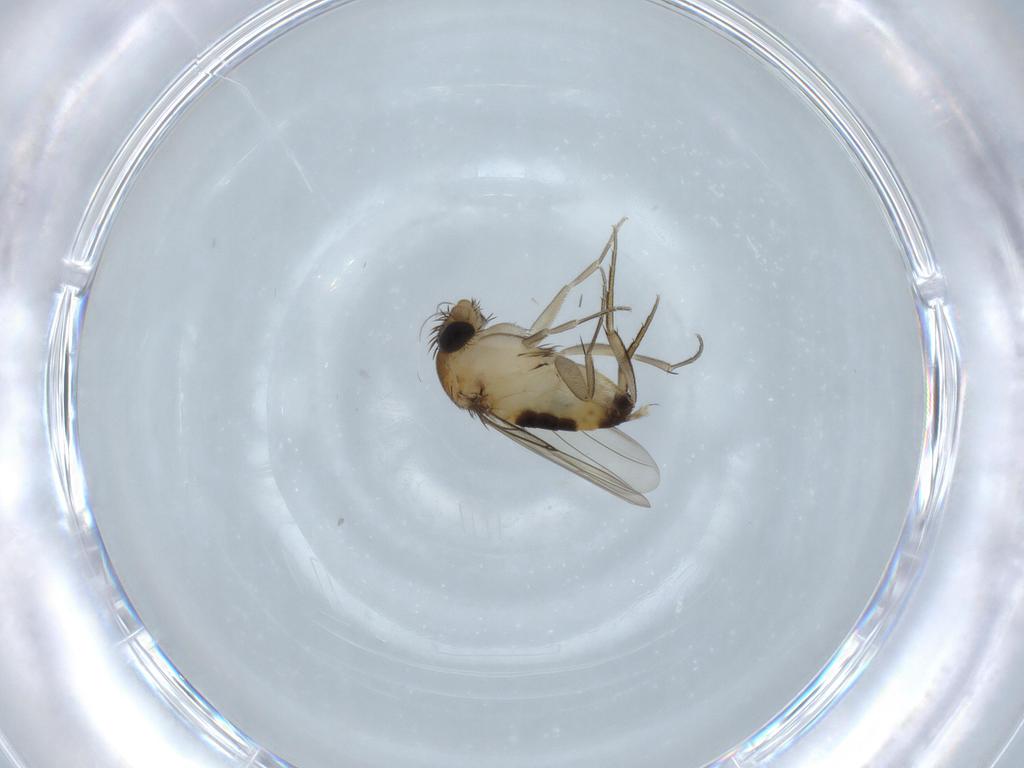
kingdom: Animalia
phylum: Arthropoda
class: Insecta
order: Diptera
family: Phoridae
